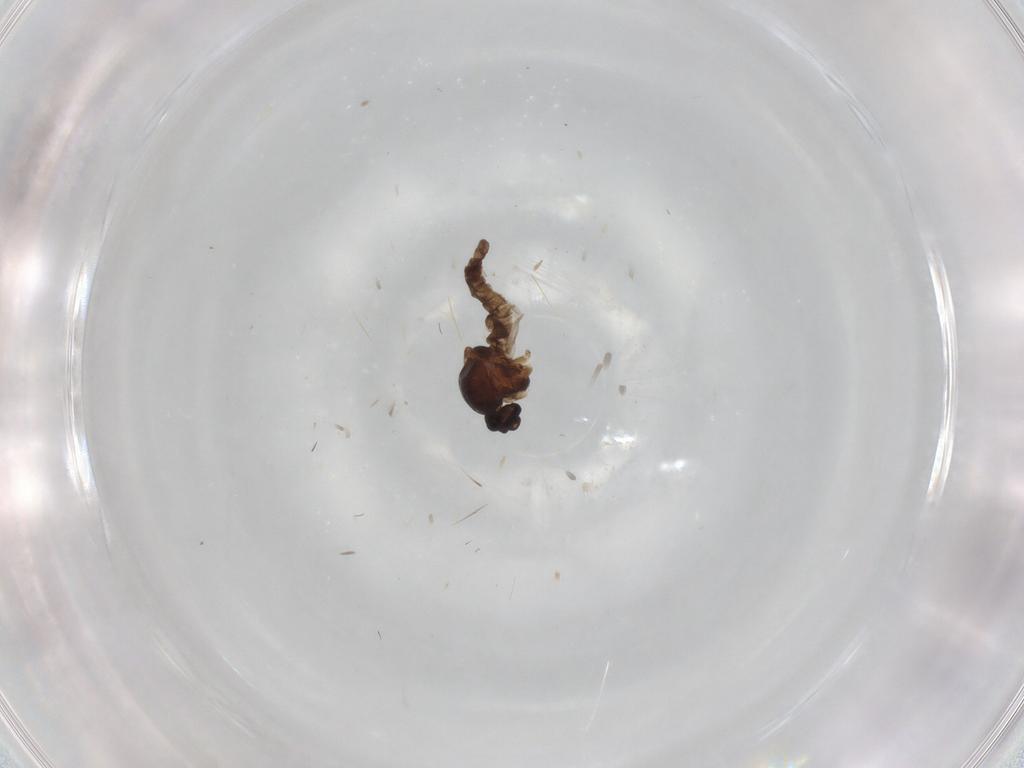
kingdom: Animalia
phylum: Arthropoda
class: Insecta
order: Diptera
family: Ceratopogonidae
